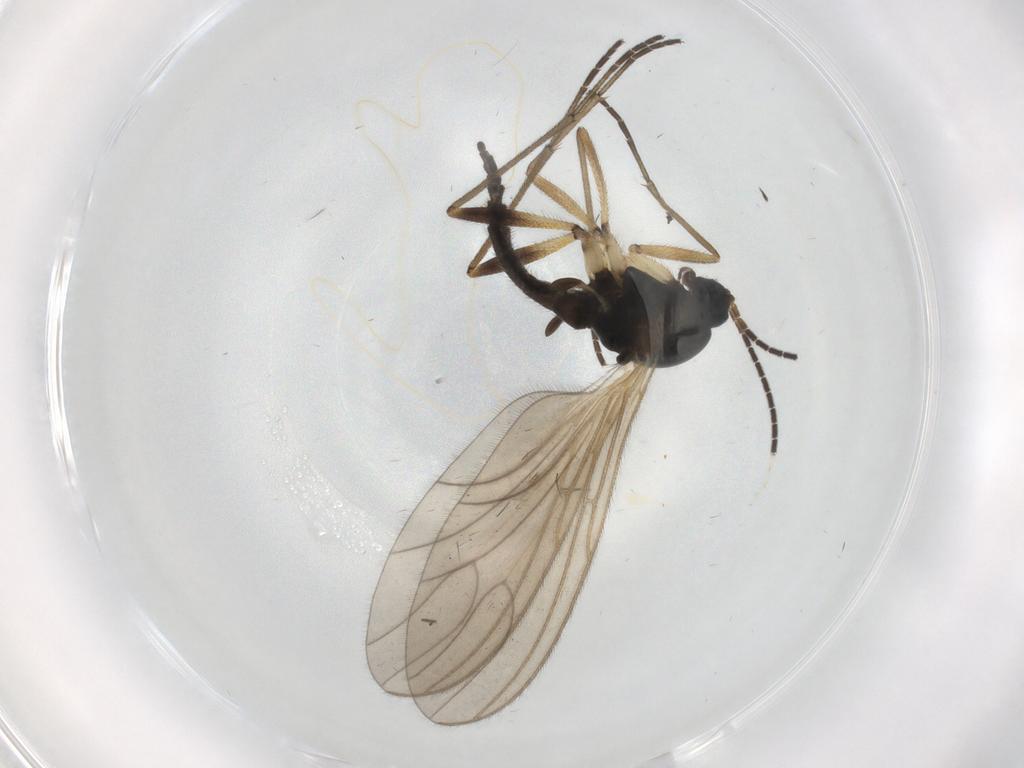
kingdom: Animalia
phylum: Arthropoda
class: Insecta
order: Diptera
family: Sciaridae
